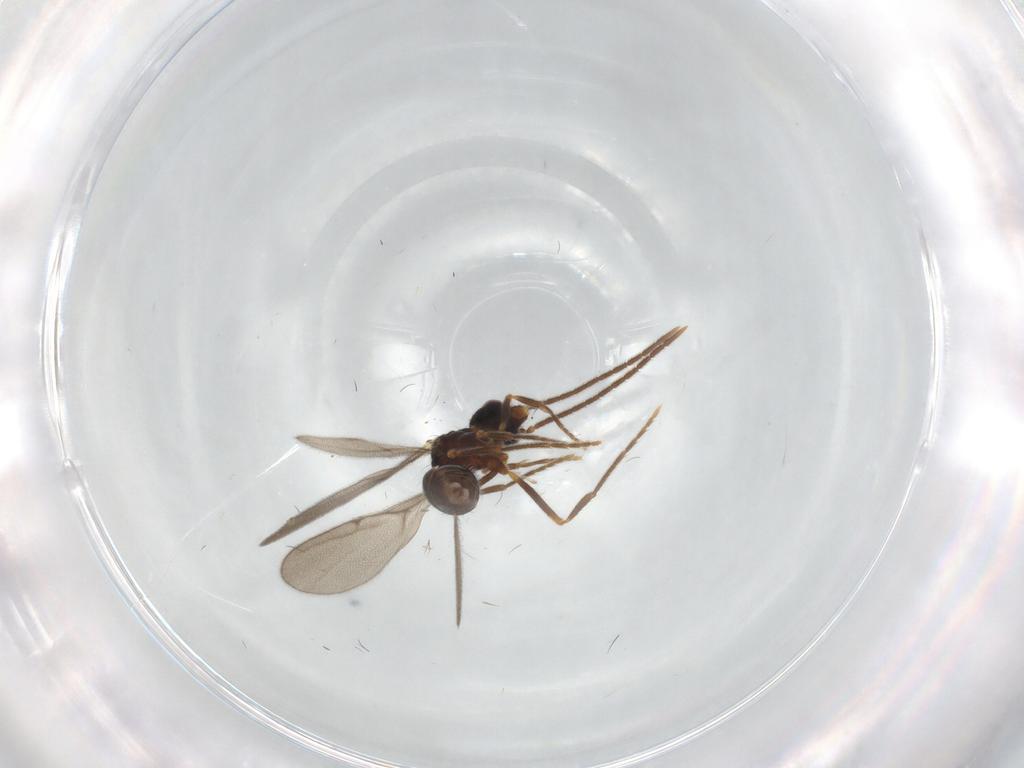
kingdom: Animalia
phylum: Arthropoda
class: Insecta
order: Hymenoptera
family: Formicidae
